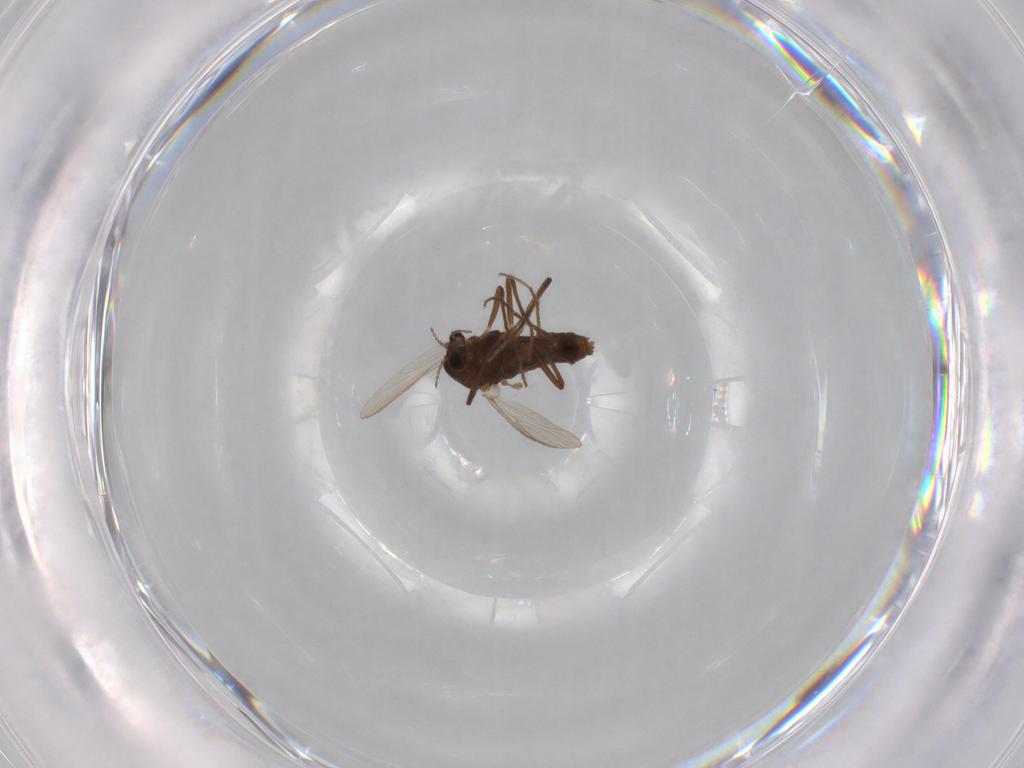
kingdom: Animalia
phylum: Arthropoda
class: Insecta
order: Diptera
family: Chironomidae
